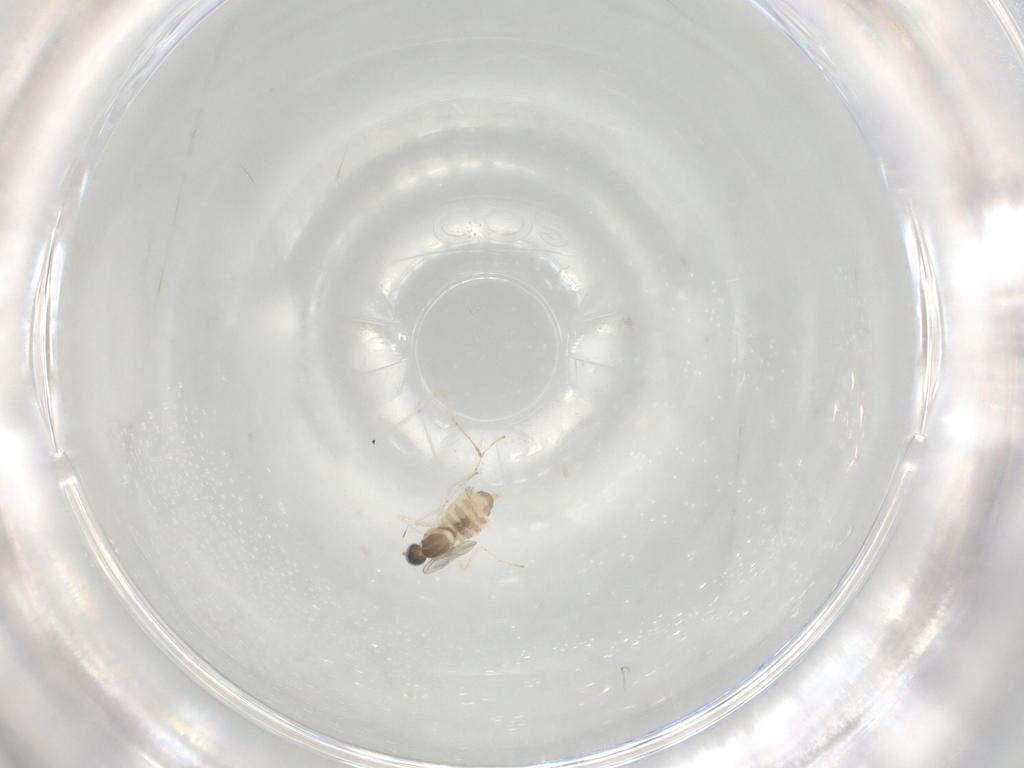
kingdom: Animalia
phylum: Arthropoda
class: Insecta
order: Diptera
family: Cecidomyiidae
